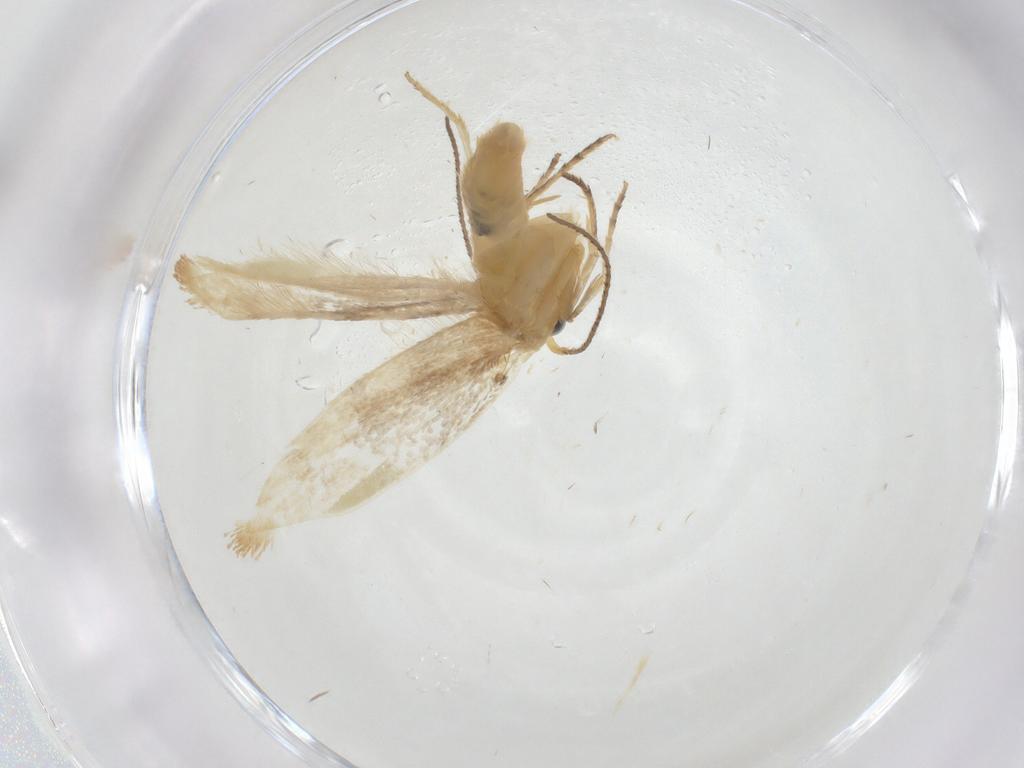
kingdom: Animalia
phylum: Arthropoda
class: Insecta
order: Lepidoptera
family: Argyresthiidae
